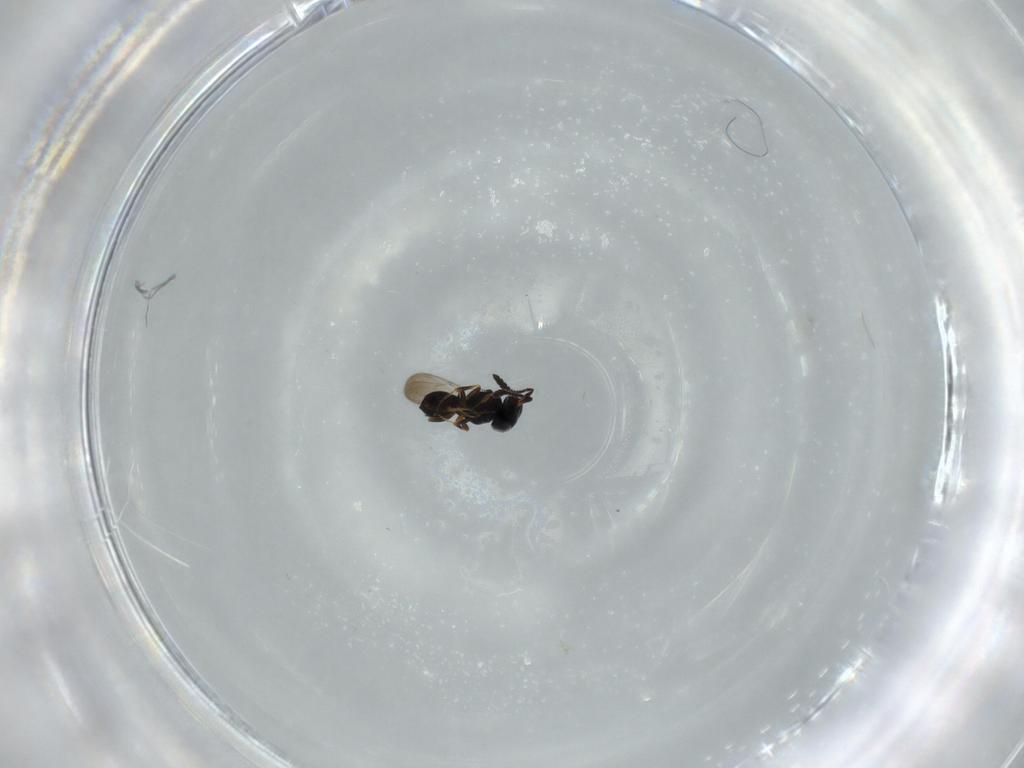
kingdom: Animalia
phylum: Arthropoda
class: Insecta
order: Hymenoptera
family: Scelionidae
